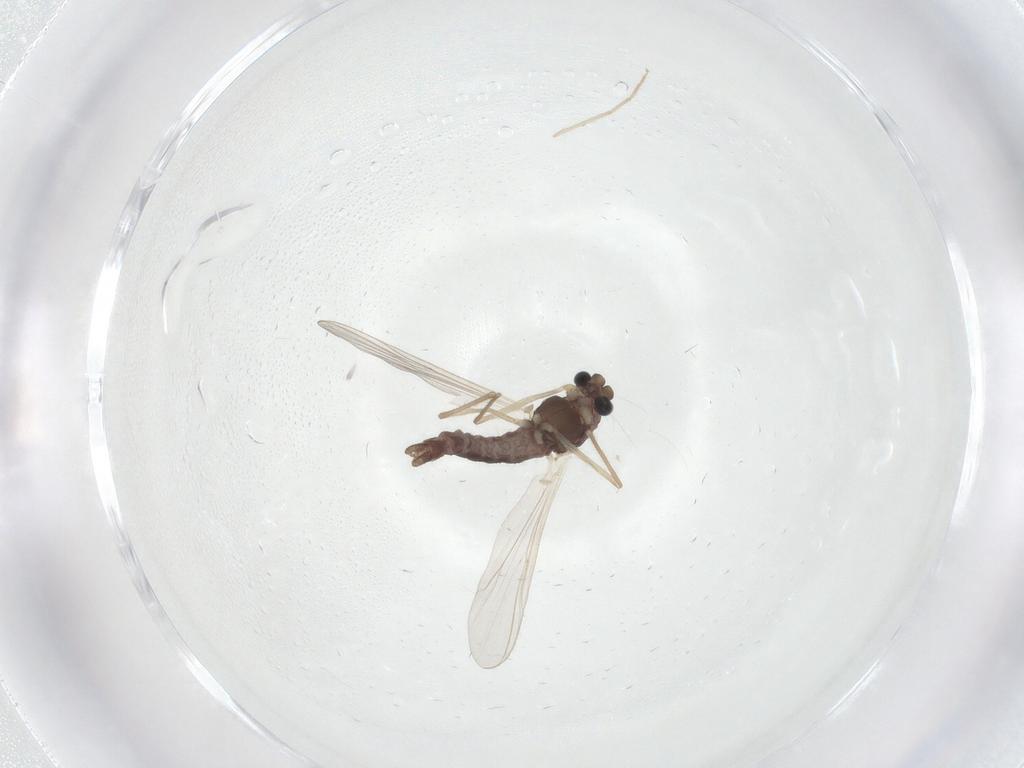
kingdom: Animalia
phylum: Arthropoda
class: Insecta
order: Diptera
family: Chironomidae
